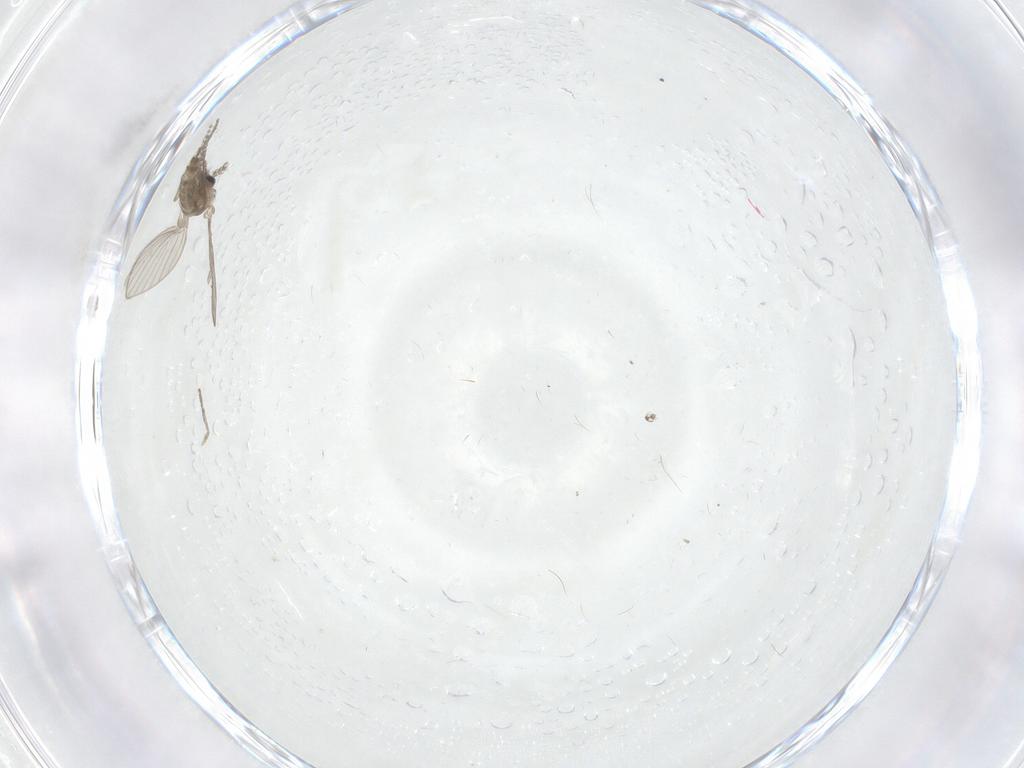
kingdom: Animalia
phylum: Arthropoda
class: Insecta
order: Diptera
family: Psychodidae
